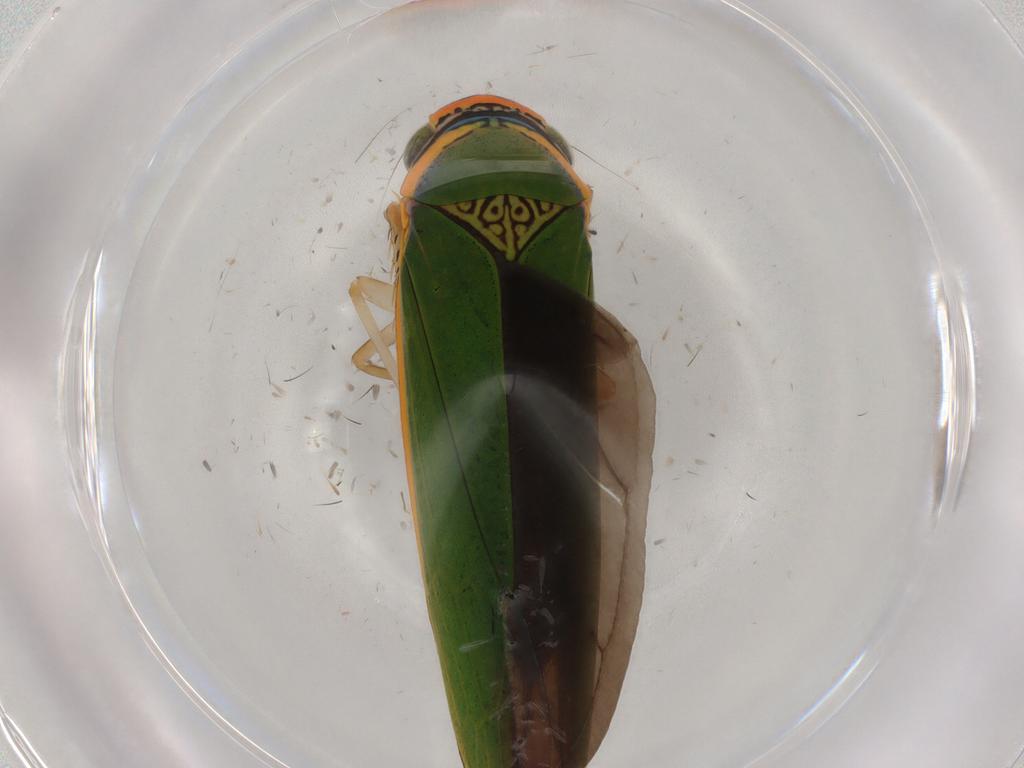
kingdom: Animalia
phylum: Arthropoda
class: Insecta
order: Hemiptera
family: Cicadellidae
